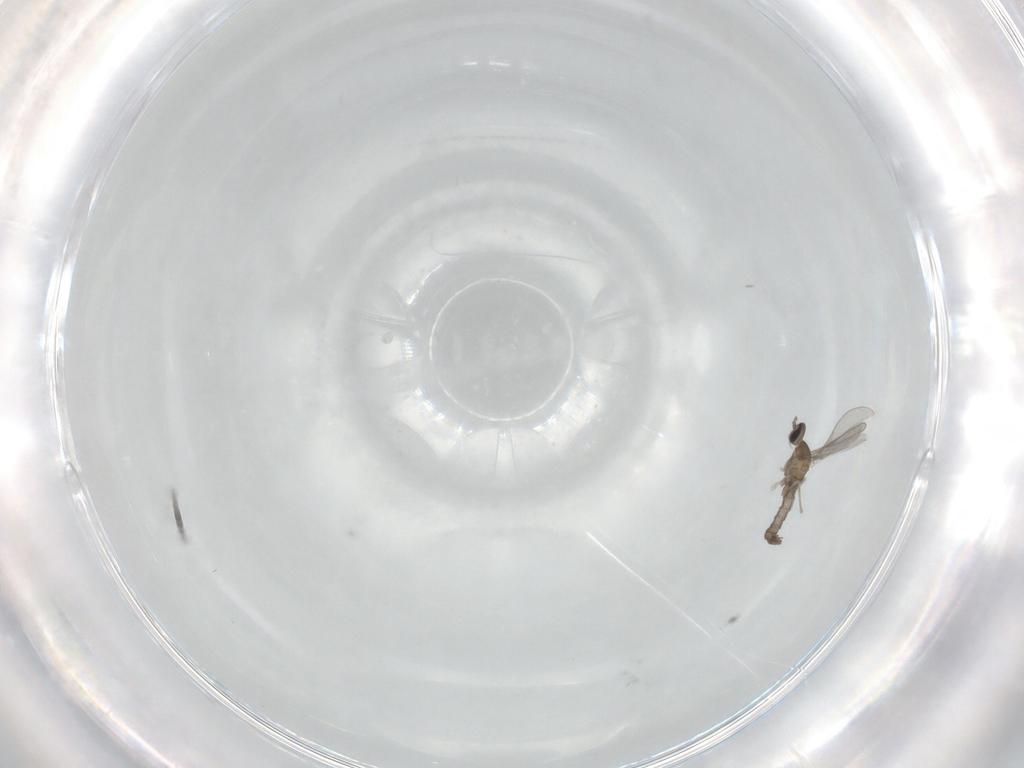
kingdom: Animalia
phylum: Arthropoda
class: Insecta
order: Diptera
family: Cecidomyiidae
